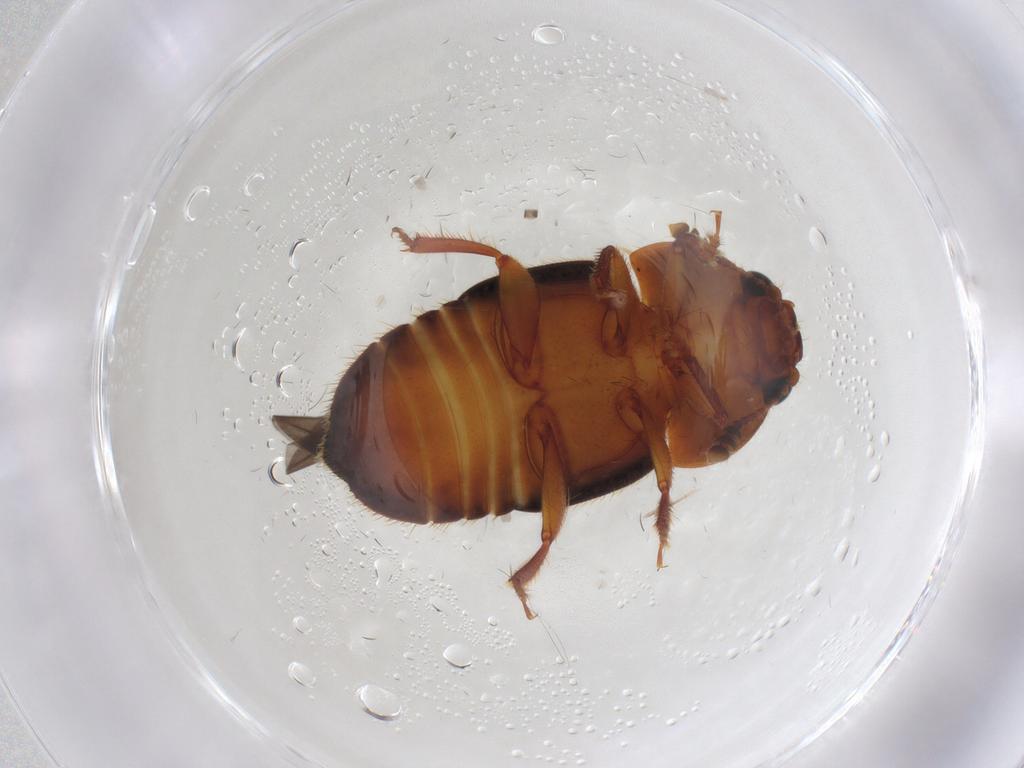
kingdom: Animalia
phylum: Arthropoda
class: Insecta
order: Coleoptera
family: Nitidulidae
